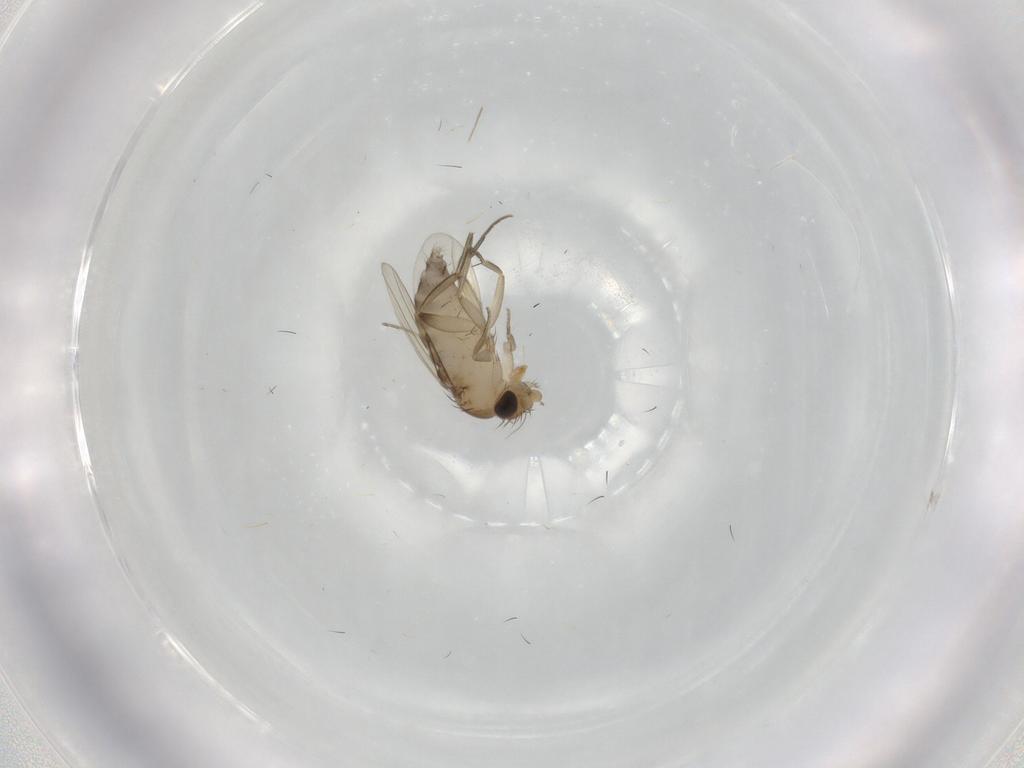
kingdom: Animalia
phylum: Arthropoda
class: Insecta
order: Diptera
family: Phoridae
